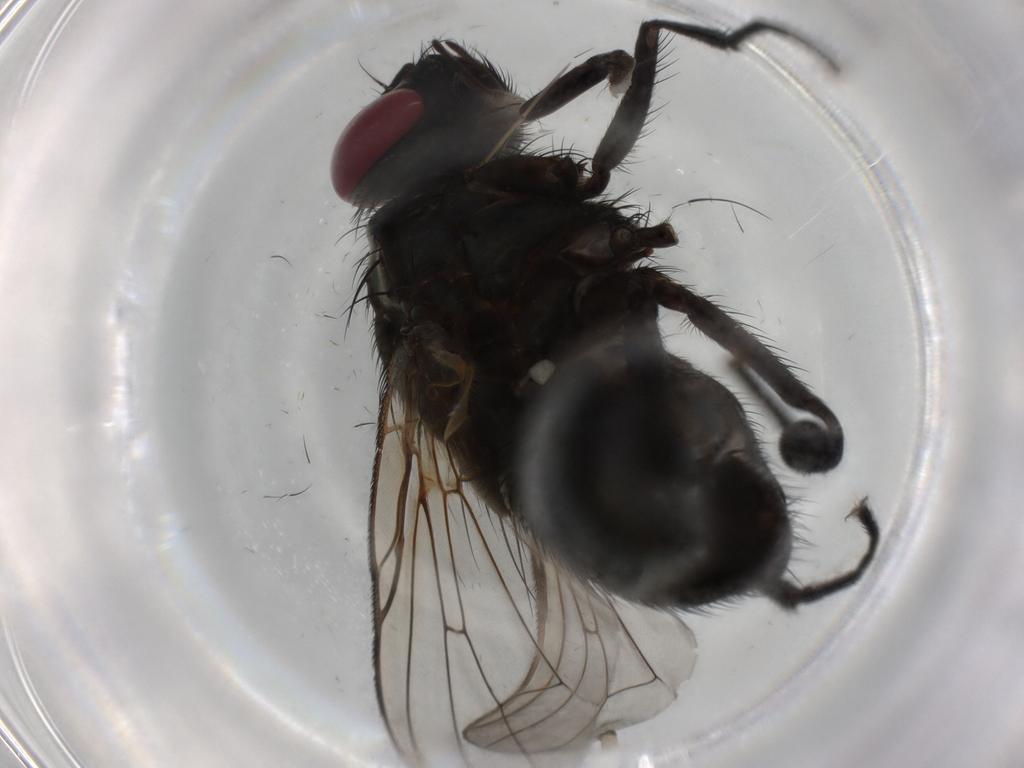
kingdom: Animalia
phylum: Arthropoda
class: Insecta
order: Diptera
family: Muscidae
